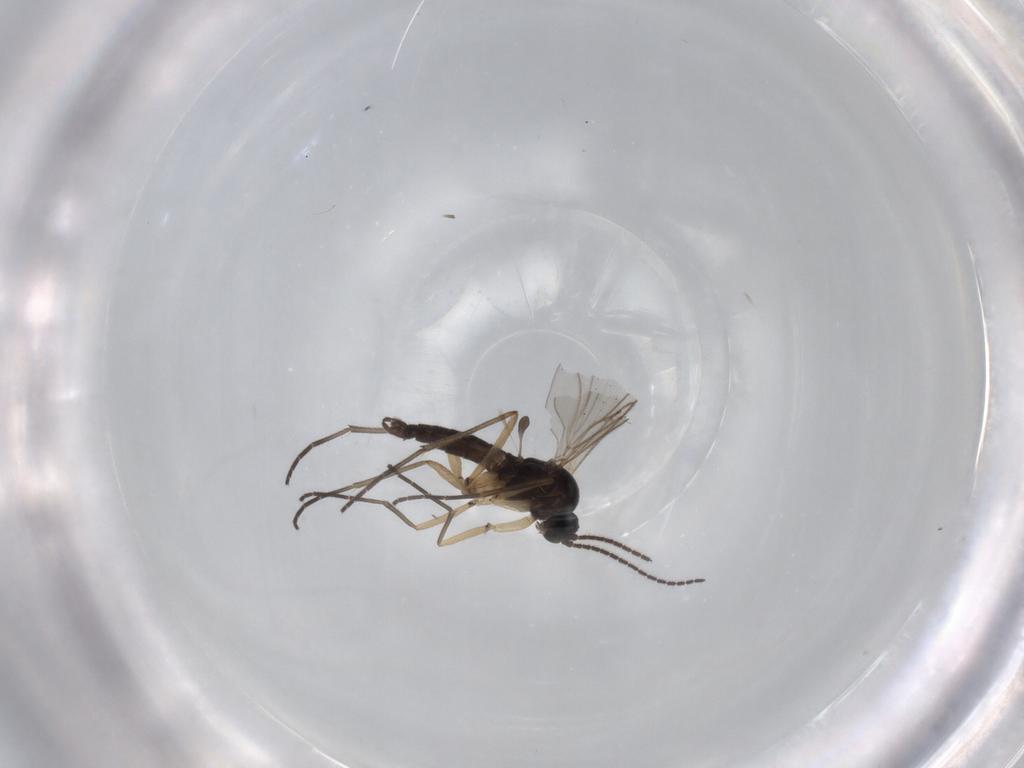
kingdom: Animalia
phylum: Arthropoda
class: Insecta
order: Diptera
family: Sciaridae
